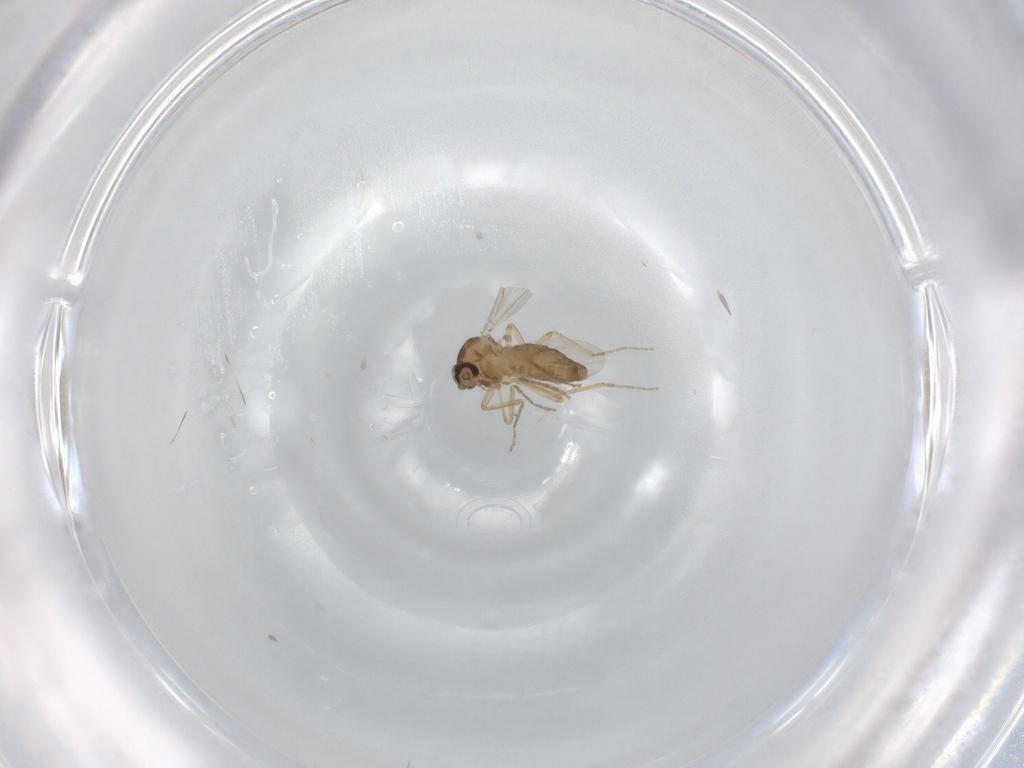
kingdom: Animalia
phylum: Arthropoda
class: Insecta
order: Diptera
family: Ceratopogonidae
